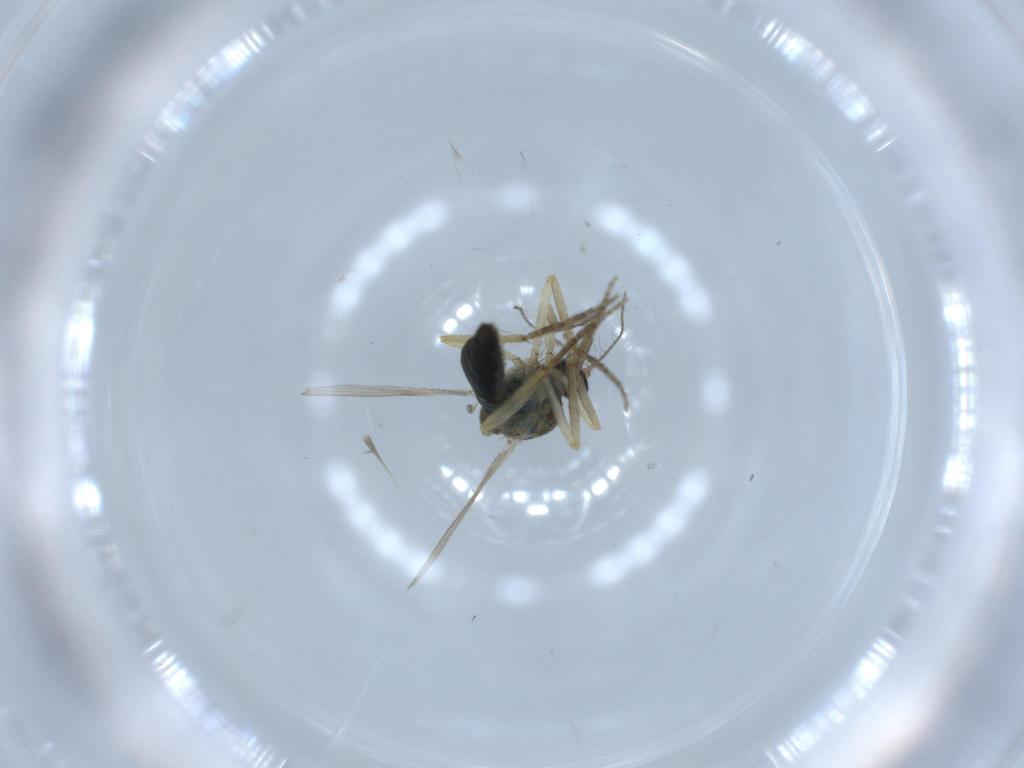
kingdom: Animalia
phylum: Arthropoda
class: Insecta
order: Diptera
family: Ceratopogonidae
